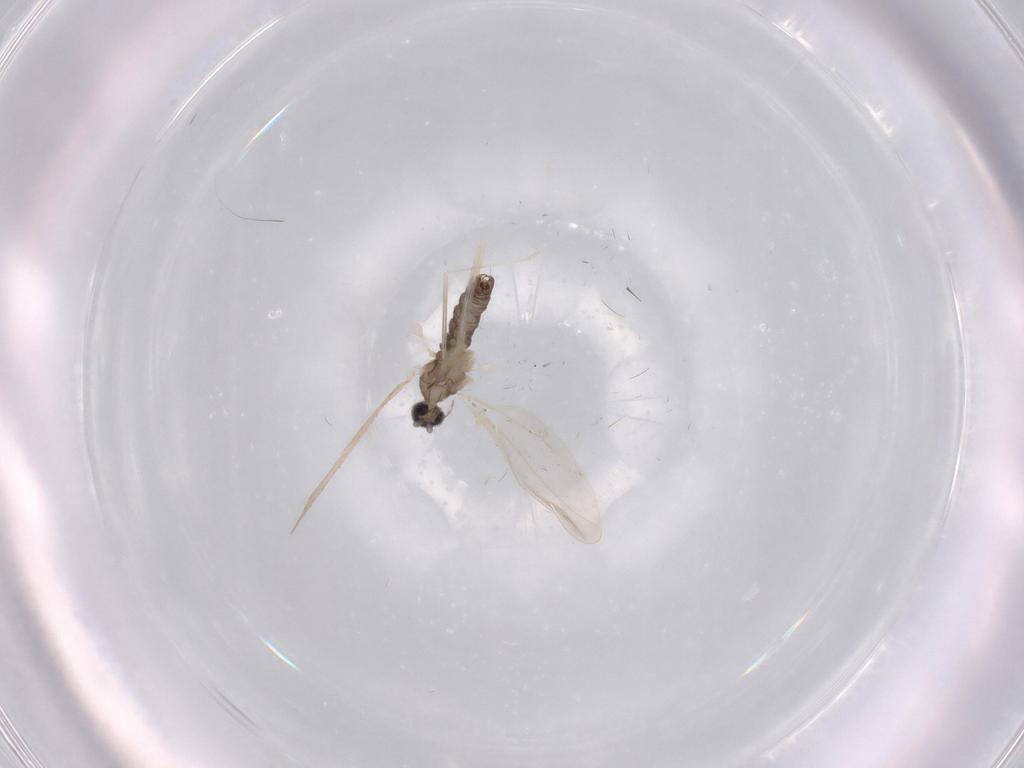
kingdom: Animalia
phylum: Arthropoda
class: Insecta
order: Diptera
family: Cecidomyiidae
